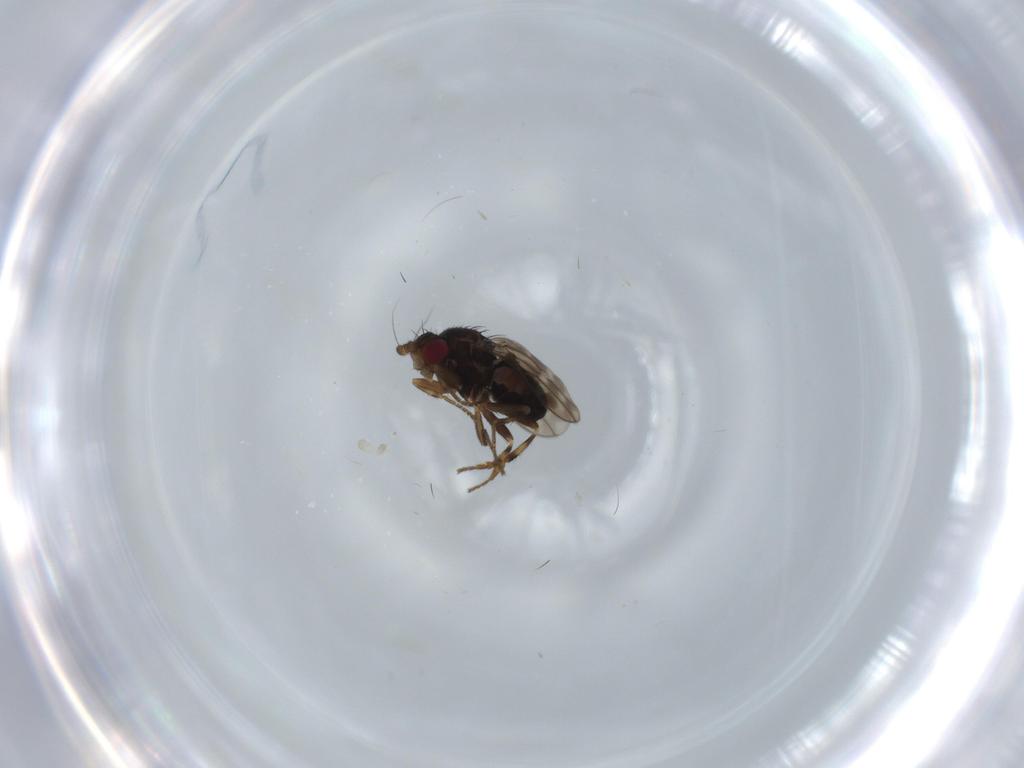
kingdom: Animalia
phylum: Arthropoda
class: Insecta
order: Diptera
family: Sphaeroceridae
